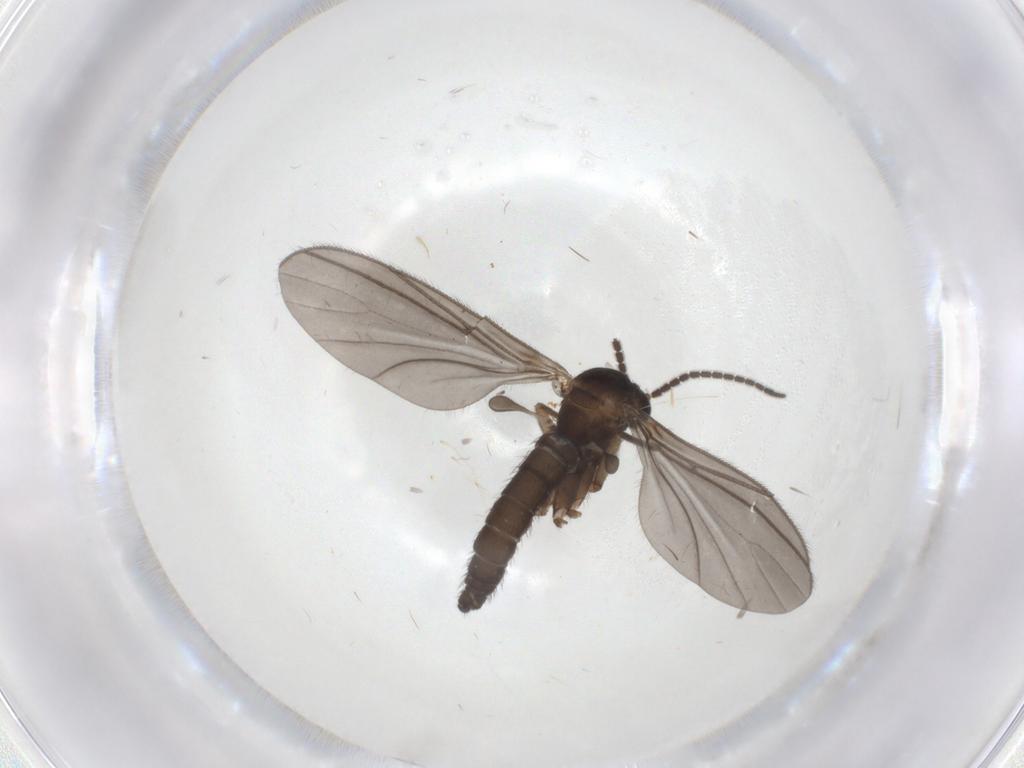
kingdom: Animalia
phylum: Arthropoda
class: Insecta
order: Diptera
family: Sciaridae
